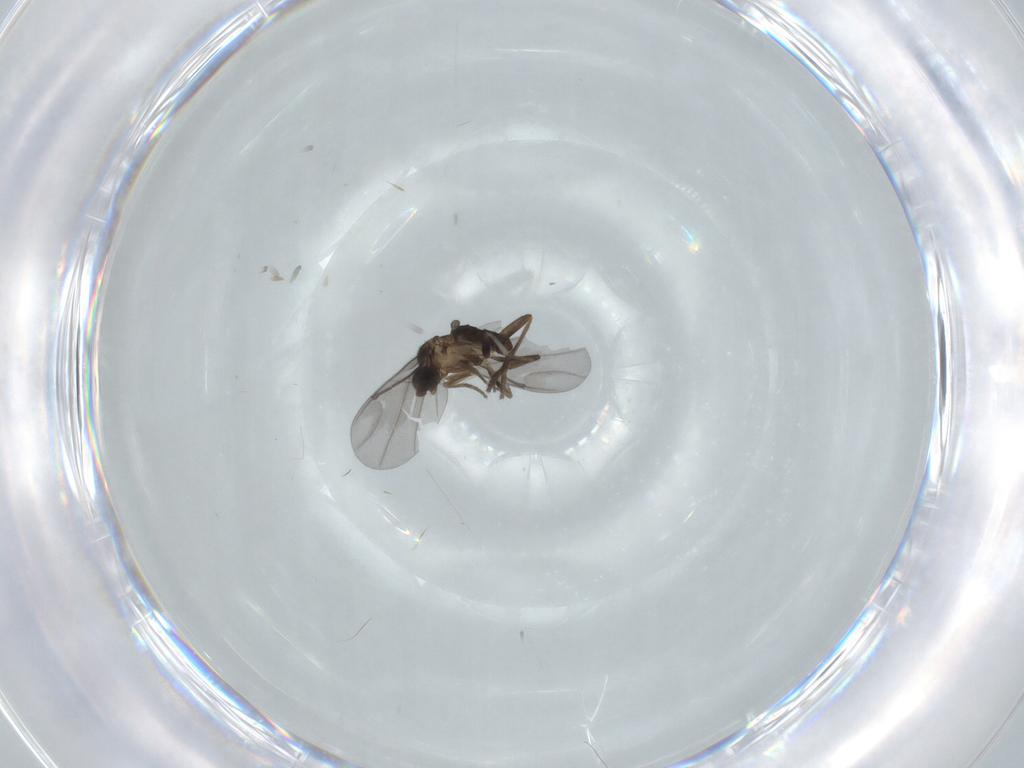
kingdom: Animalia
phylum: Arthropoda
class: Insecta
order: Diptera
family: Phoridae
